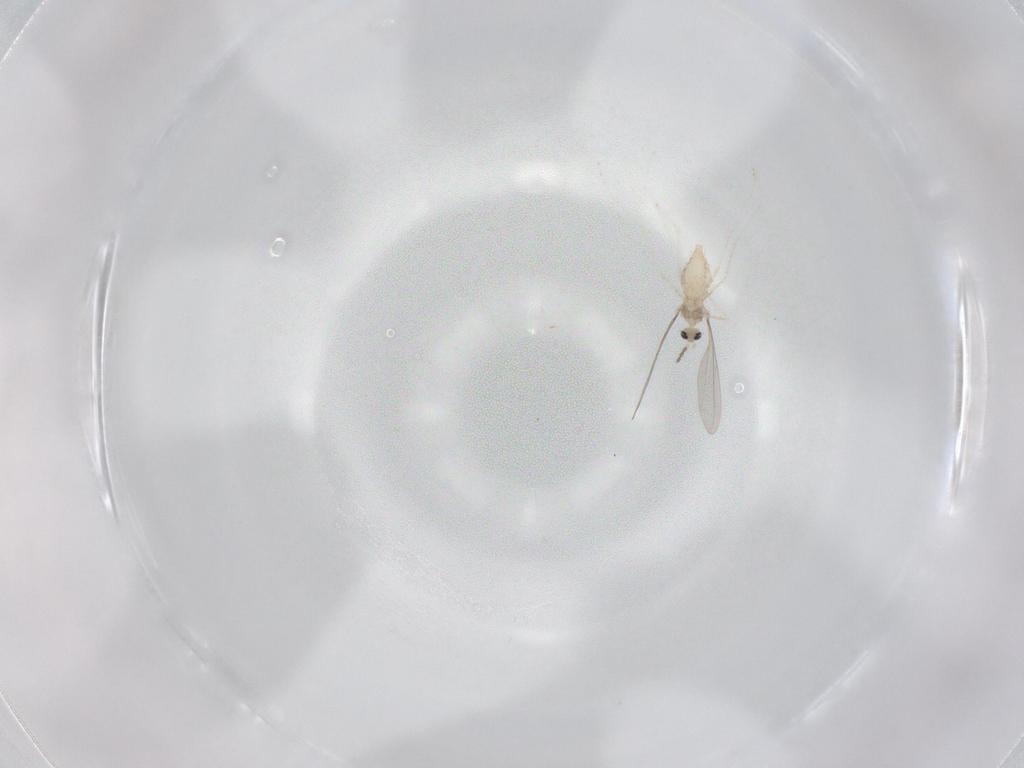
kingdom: Animalia
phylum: Arthropoda
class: Insecta
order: Diptera
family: Cecidomyiidae
